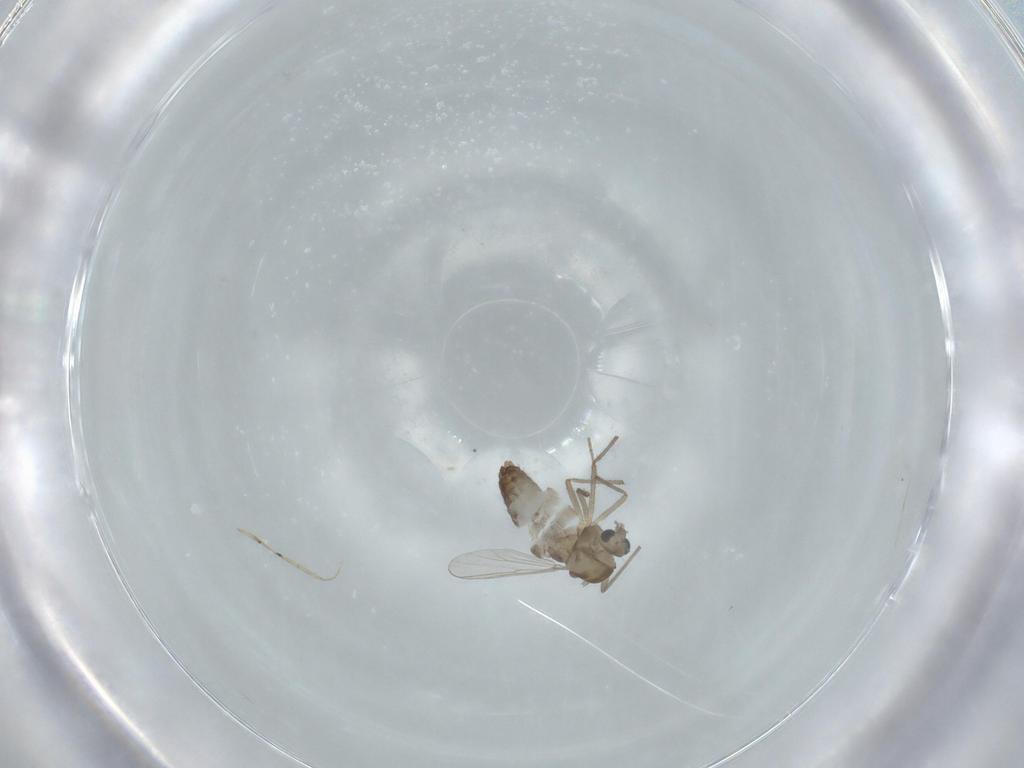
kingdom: Animalia
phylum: Arthropoda
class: Insecta
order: Diptera
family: Chironomidae
